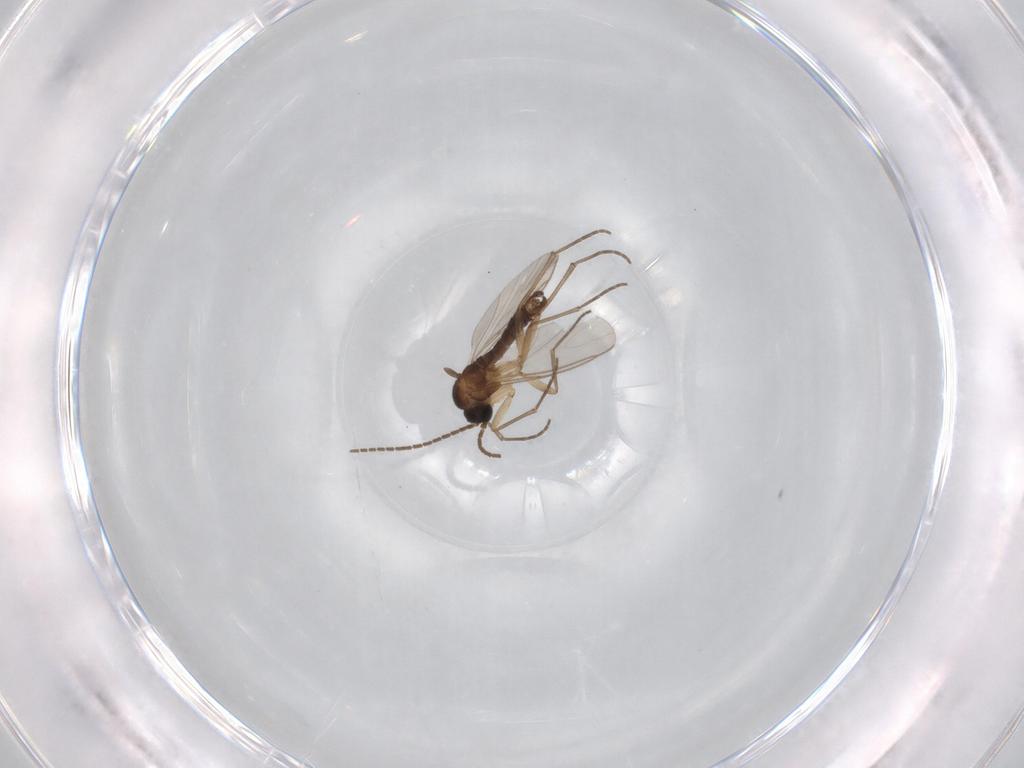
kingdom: Animalia
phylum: Arthropoda
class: Insecta
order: Diptera
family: Sciaridae
